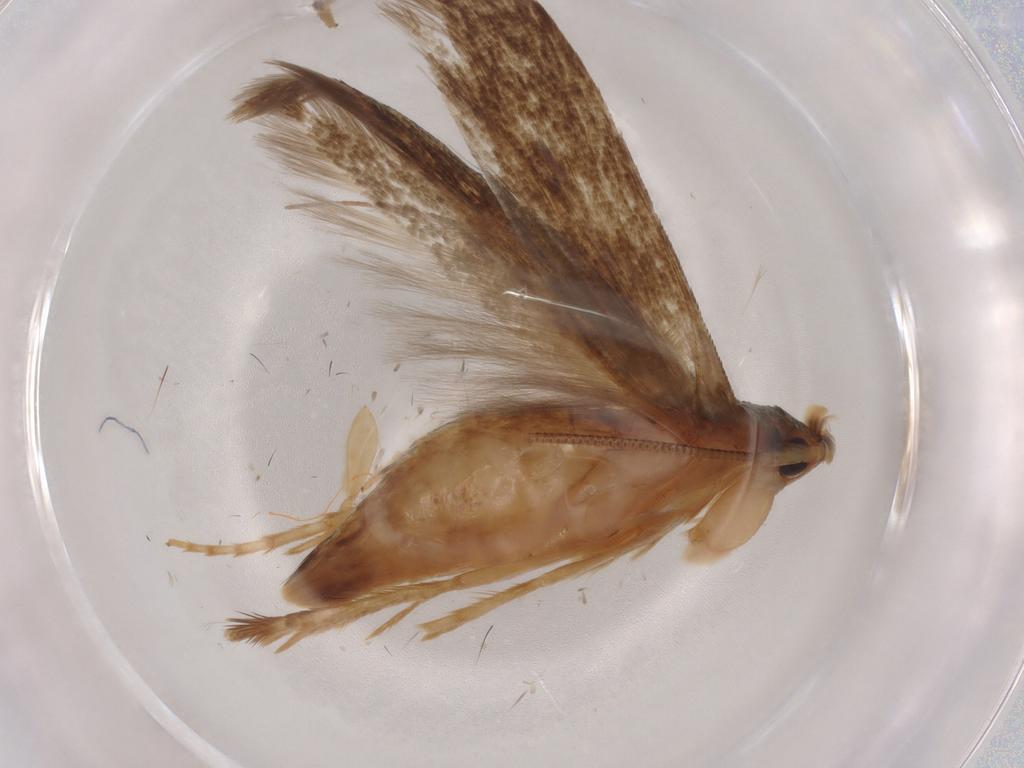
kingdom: Animalia
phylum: Arthropoda
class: Insecta
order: Lepidoptera
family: Tineidae
